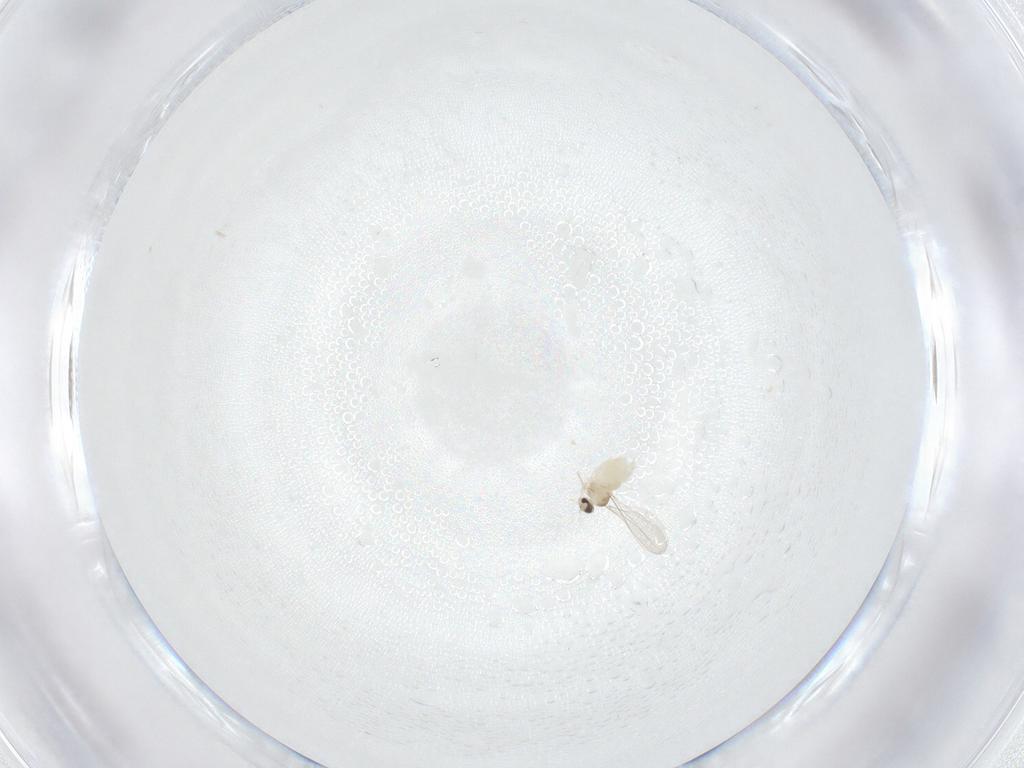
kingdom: Animalia
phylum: Arthropoda
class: Insecta
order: Diptera
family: Cecidomyiidae
